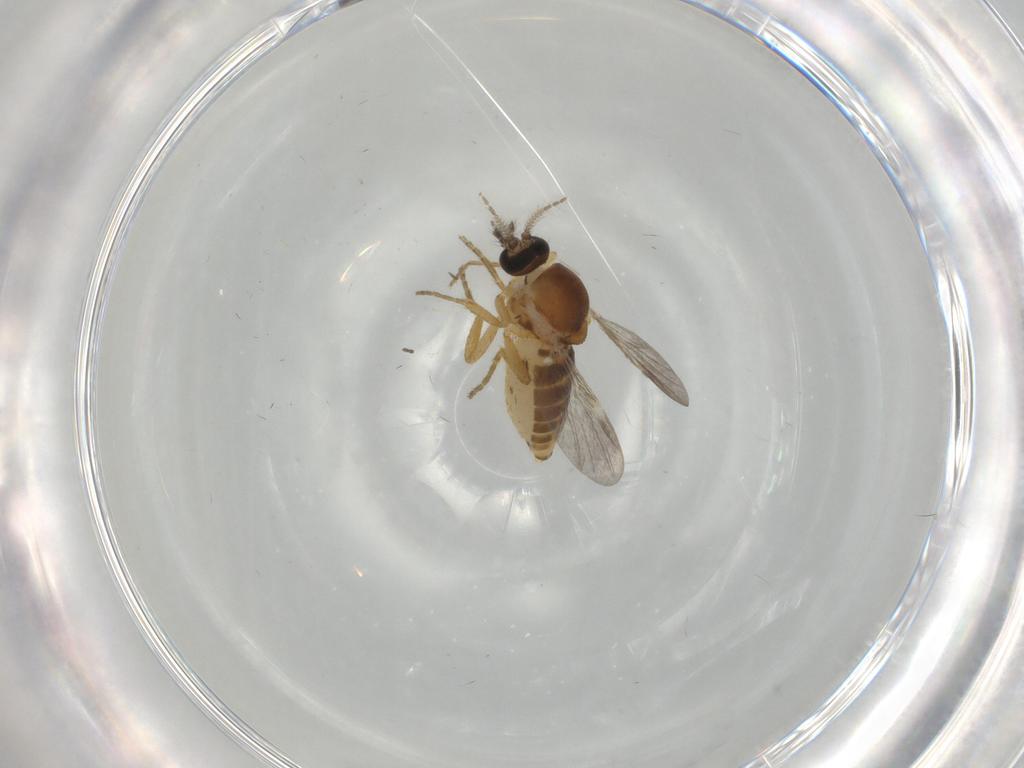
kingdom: Animalia
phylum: Arthropoda
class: Insecta
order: Diptera
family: Ceratopogonidae
